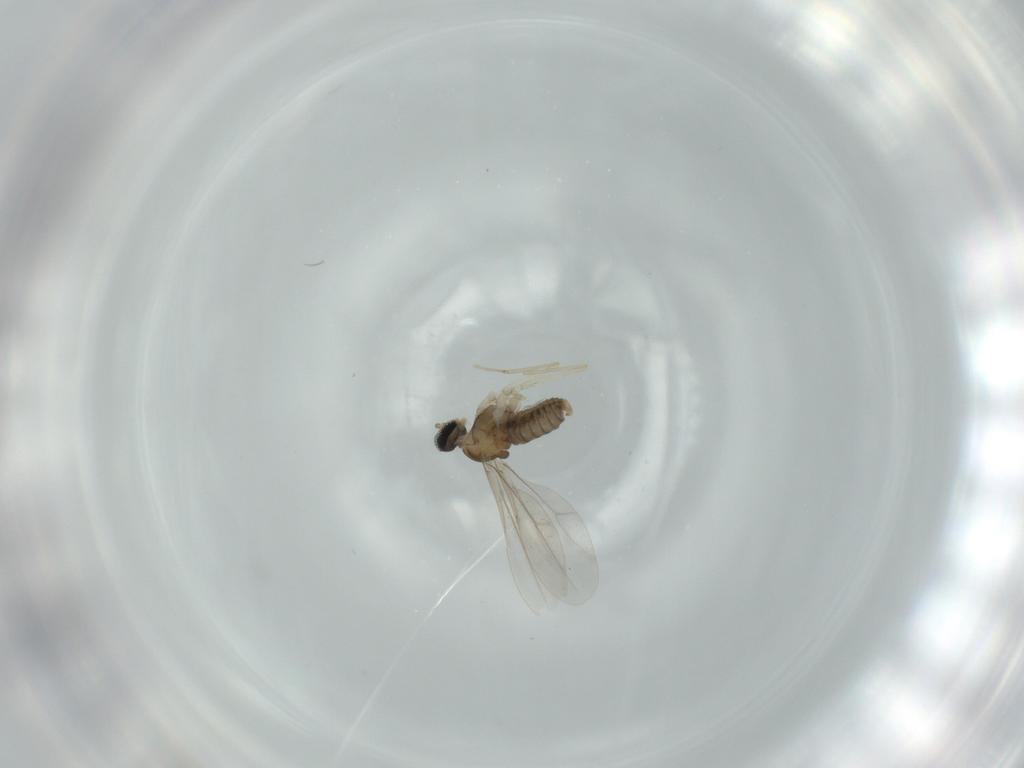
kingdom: Animalia
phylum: Arthropoda
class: Insecta
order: Diptera
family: Cecidomyiidae
